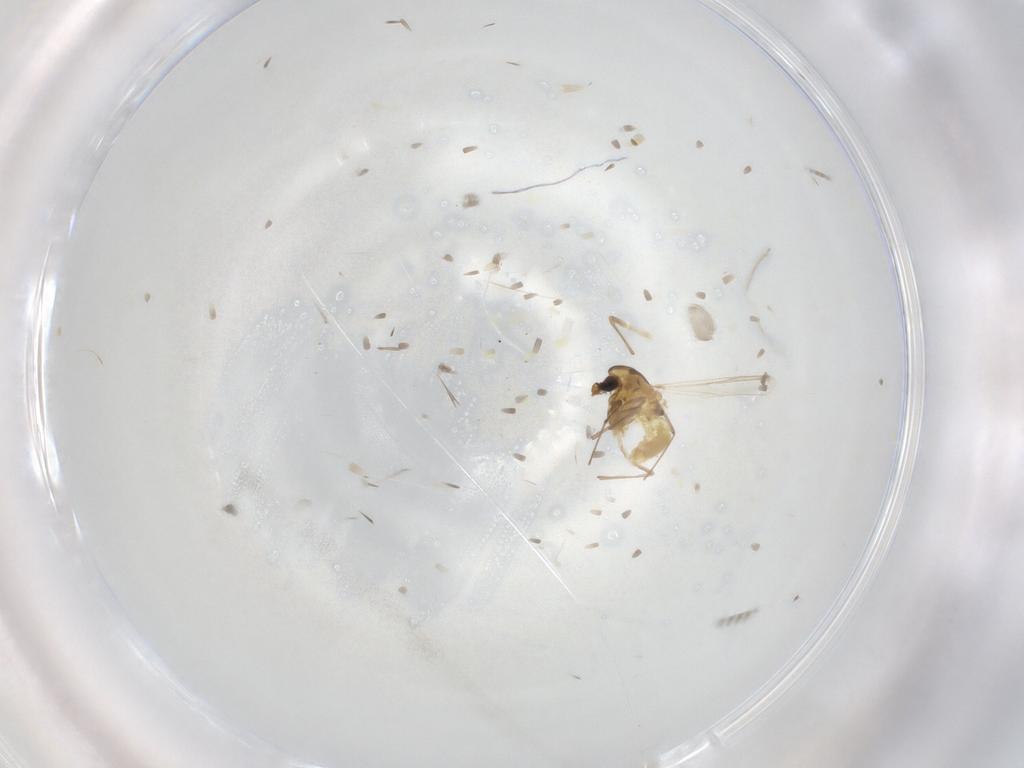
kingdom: Animalia
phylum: Arthropoda
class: Insecta
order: Diptera
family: Chironomidae
